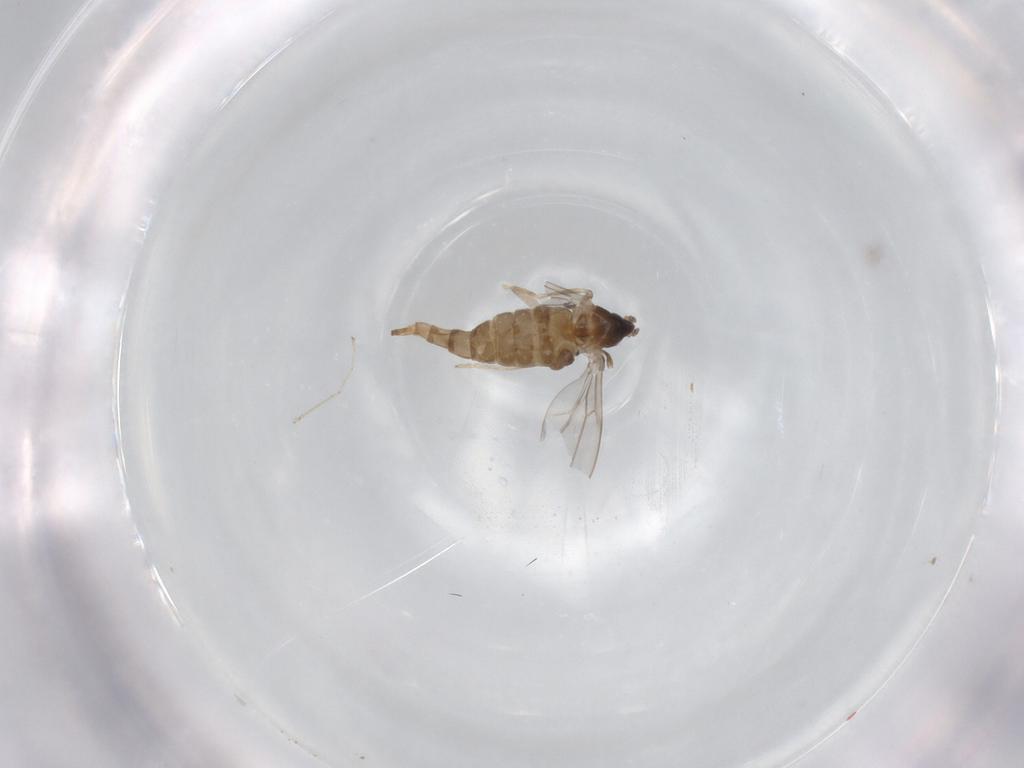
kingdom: Animalia
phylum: Arthropoda
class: Insecta
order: Diptera
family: Cecidomyiidae
